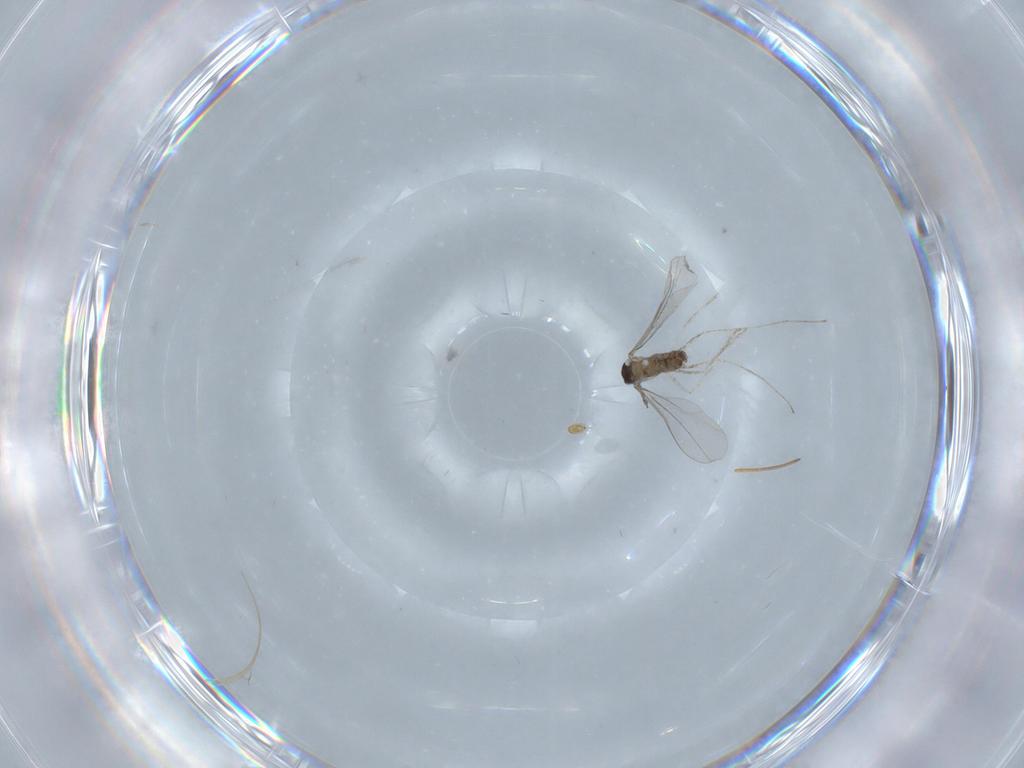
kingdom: Animalia
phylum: Arthropoda
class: Insecta
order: Diptera
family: Cecidomyiidae
